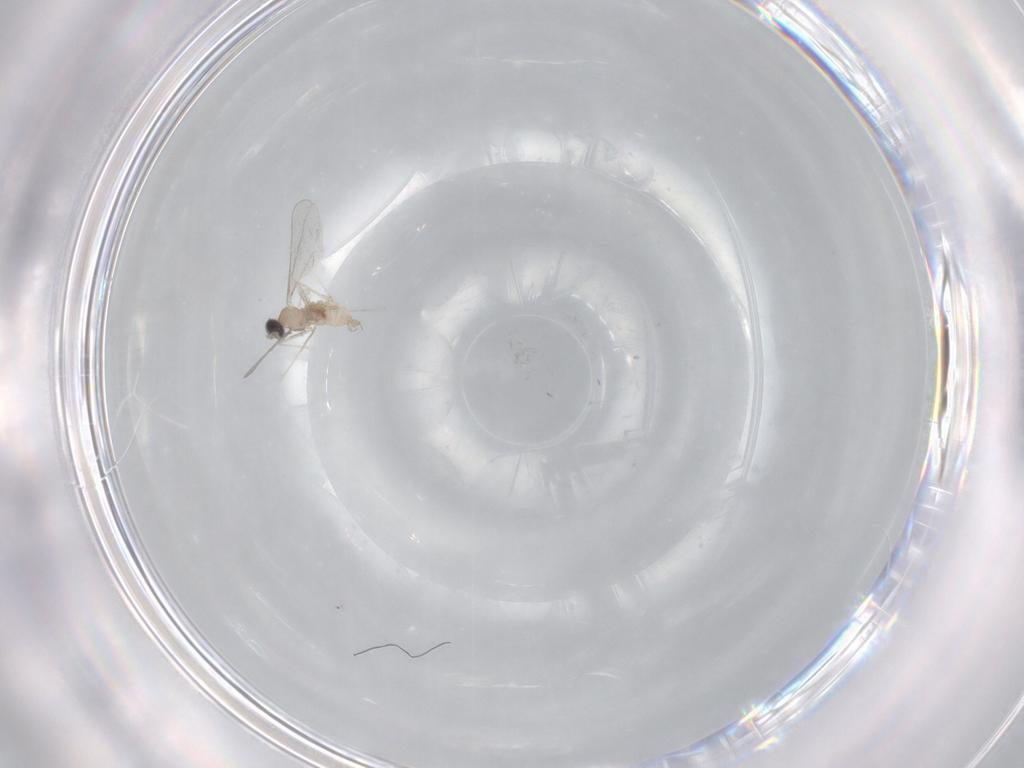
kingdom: Animalia
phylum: Arthropoda
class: Insecta
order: Diptera
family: Cecidomyiidae
